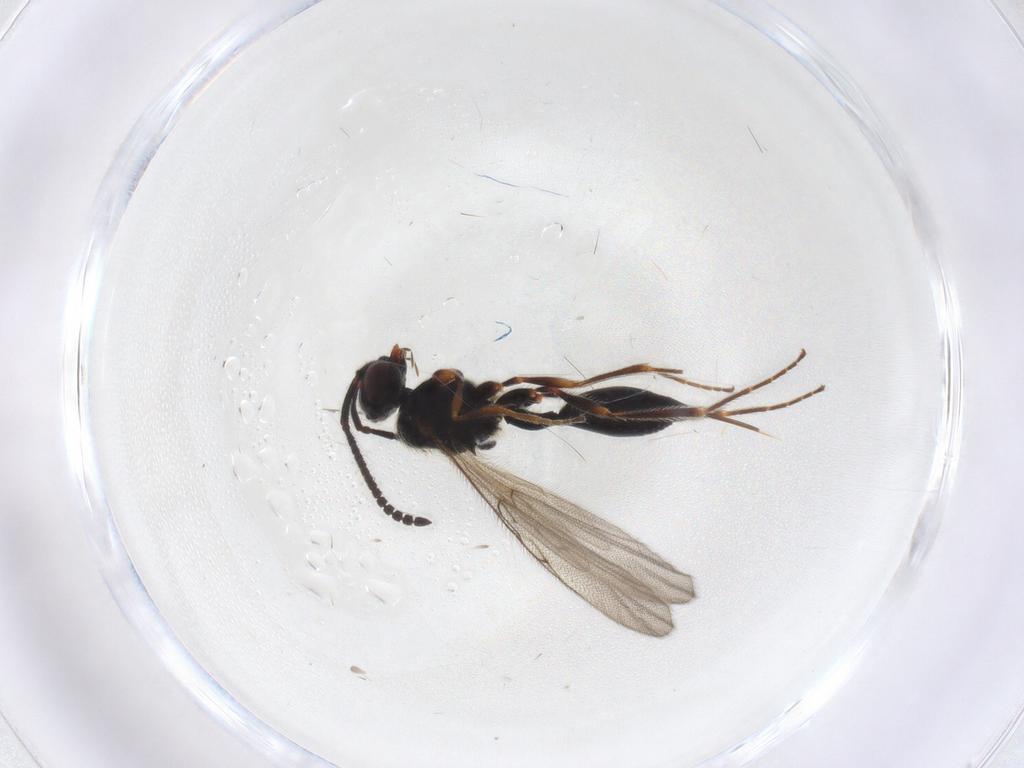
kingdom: Animalia
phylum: Arthropoda
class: Insecta
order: Hymenoptera
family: Diapriidae
